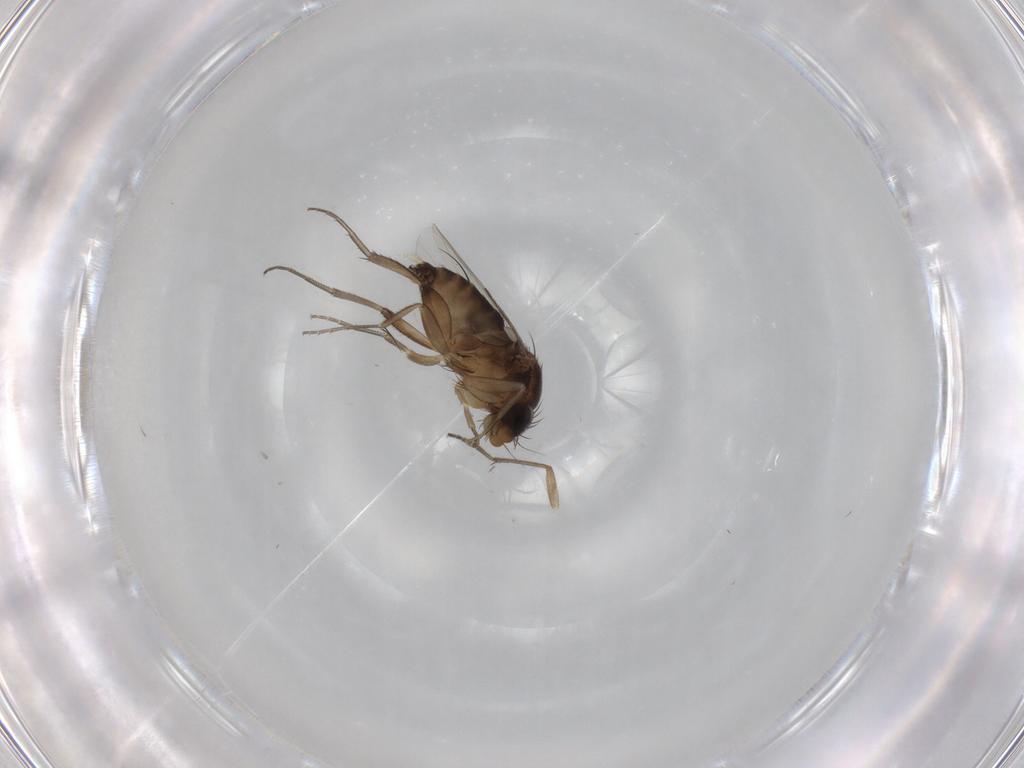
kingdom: Animalia
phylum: Arthropoda
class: Insecta
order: Diptera
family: Phoridae
